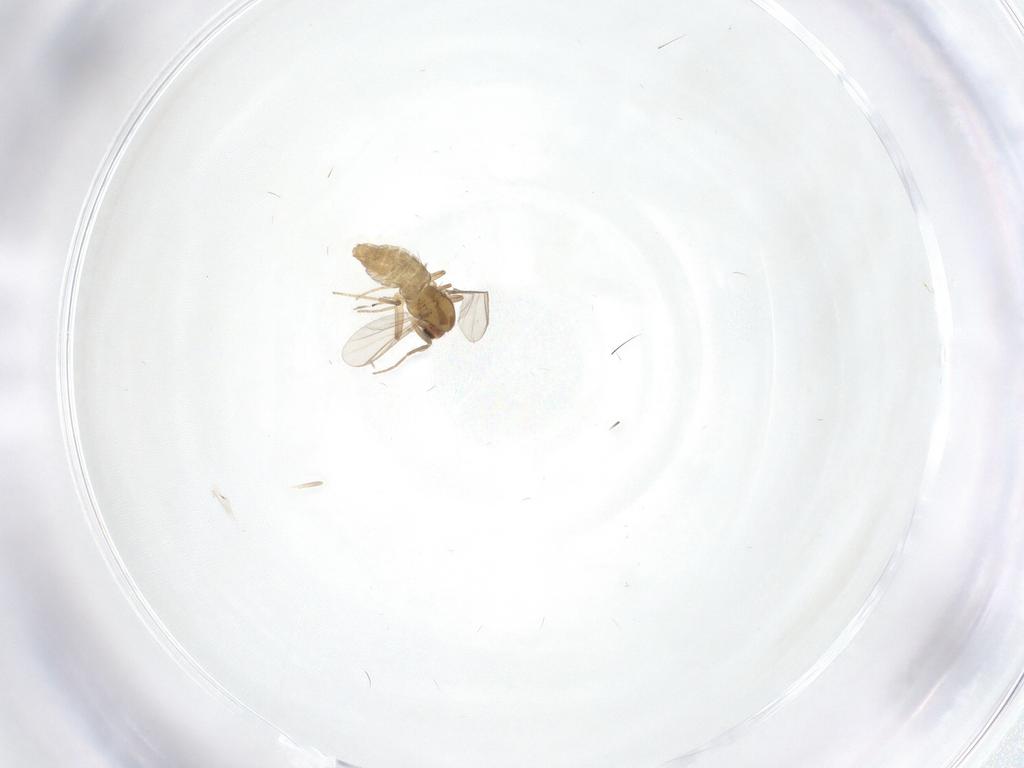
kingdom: Animalia
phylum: Arthropoda
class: Insecta
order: Diptera
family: Chironomidae
